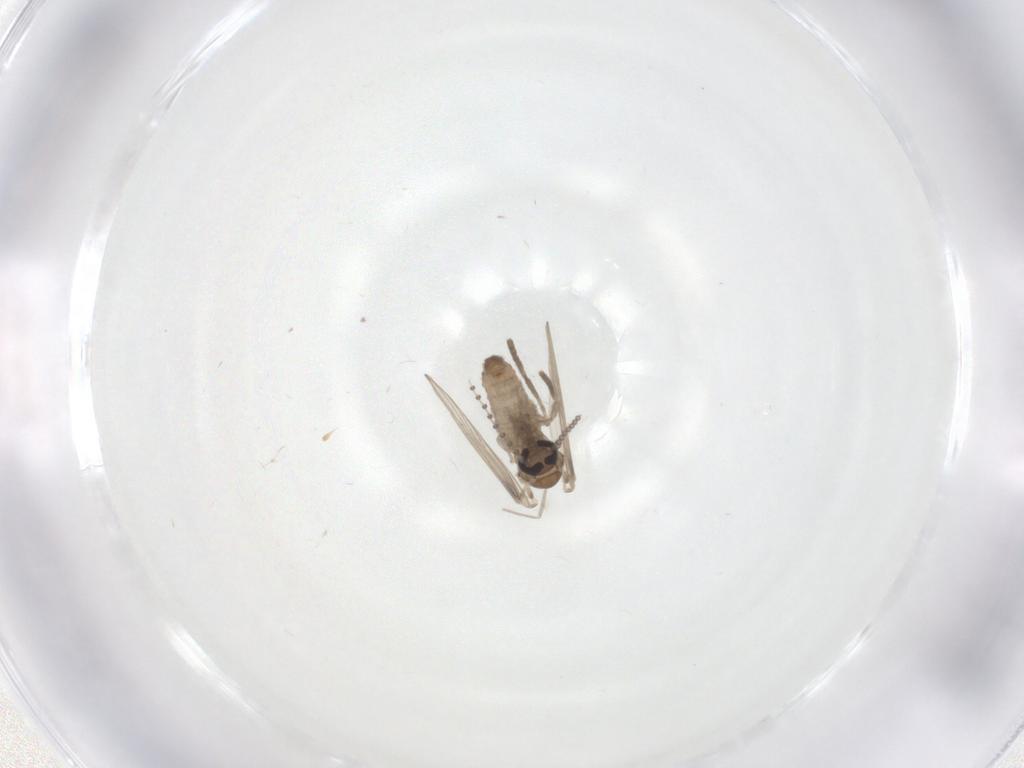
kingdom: Animalia
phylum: Arthropoda
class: Insecta
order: Diptera
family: Psychodidae
